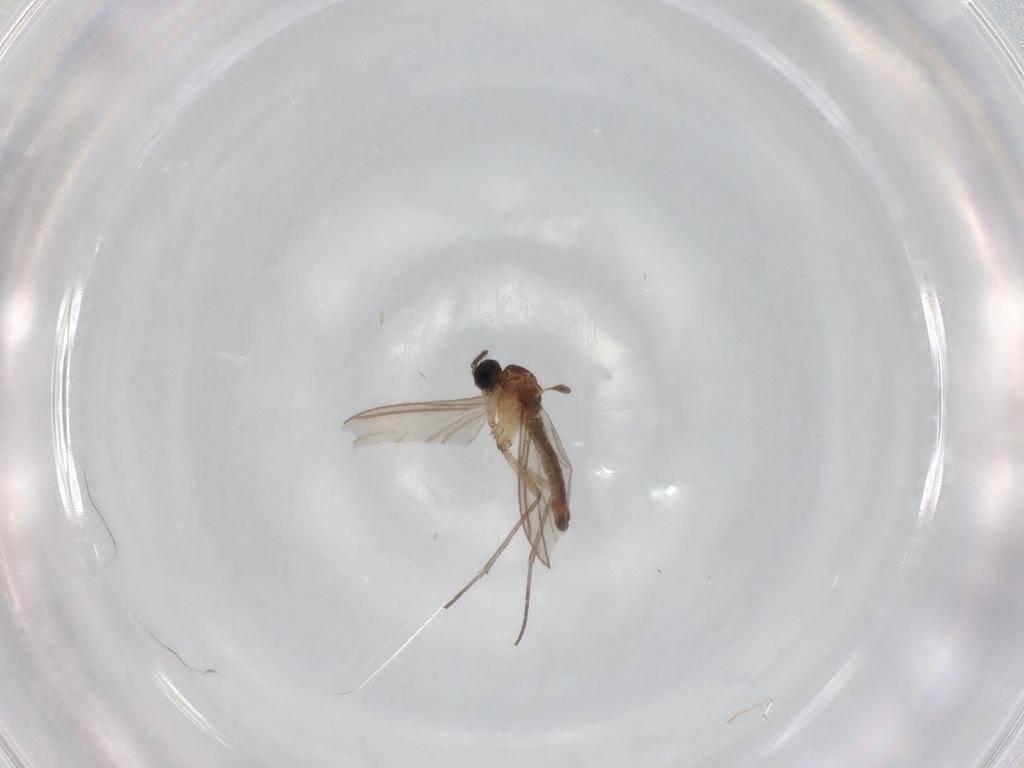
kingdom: Animalia
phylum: Arthropoda
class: Insecta
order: Diptera
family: Sciaridae
